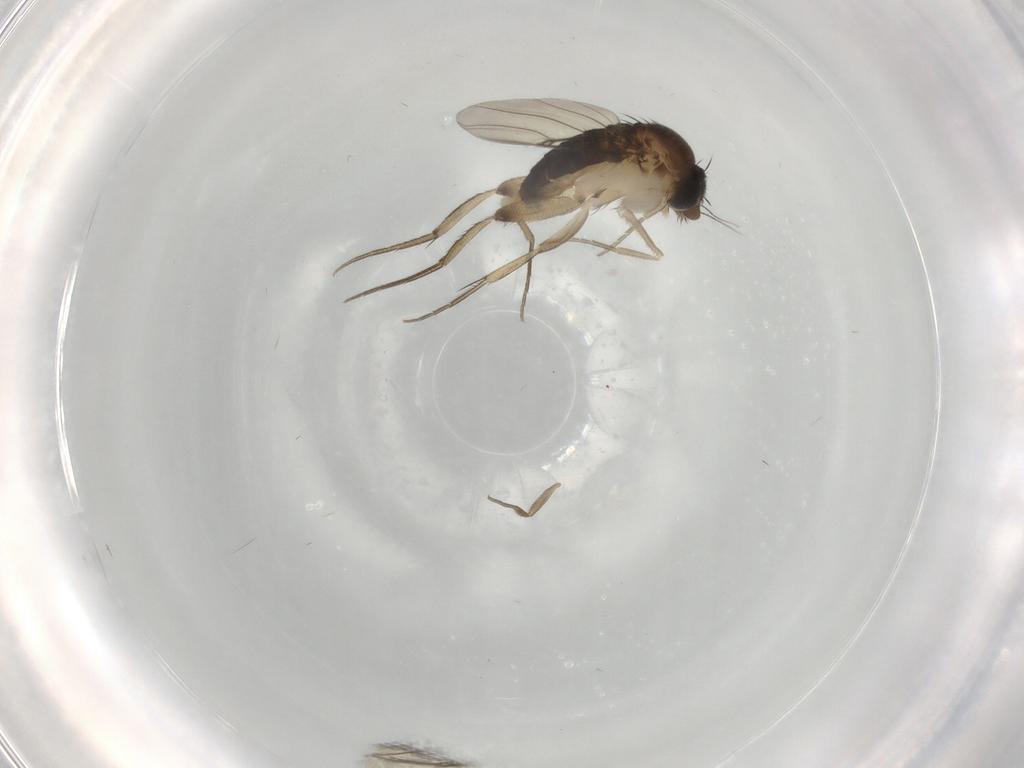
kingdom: Animalia
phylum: Arthropoda
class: Insecta
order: Diptera
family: Phoridae
